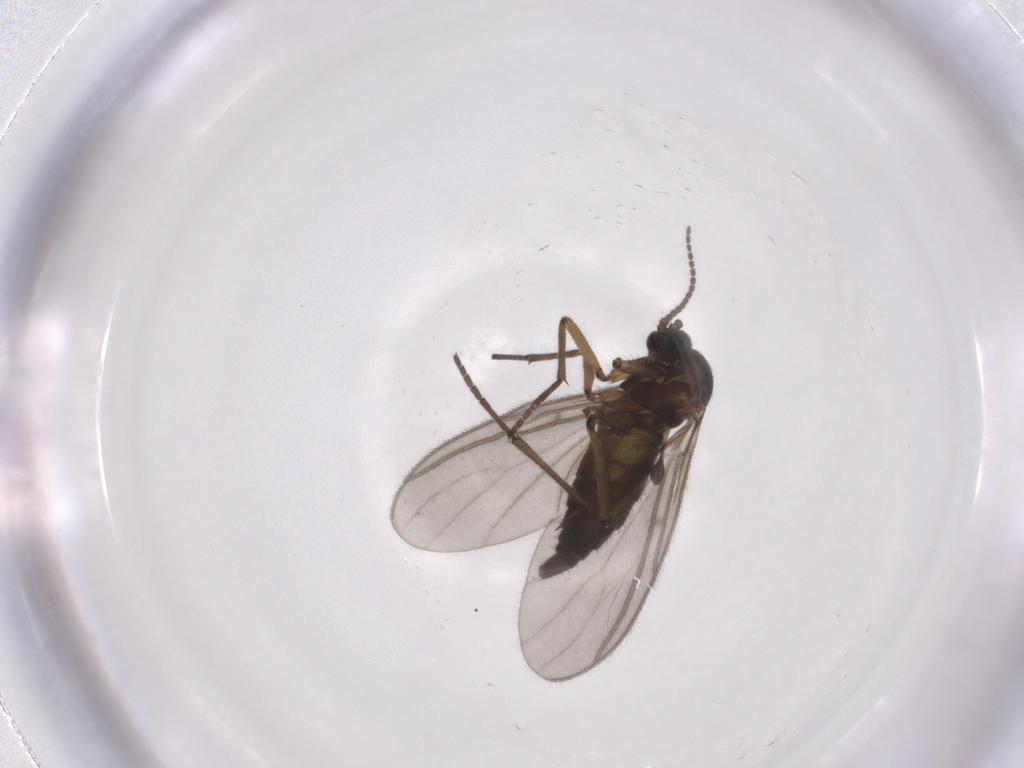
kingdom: Animalia
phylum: Arthropoda
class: Insecta
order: Diptera
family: Sciaridae
